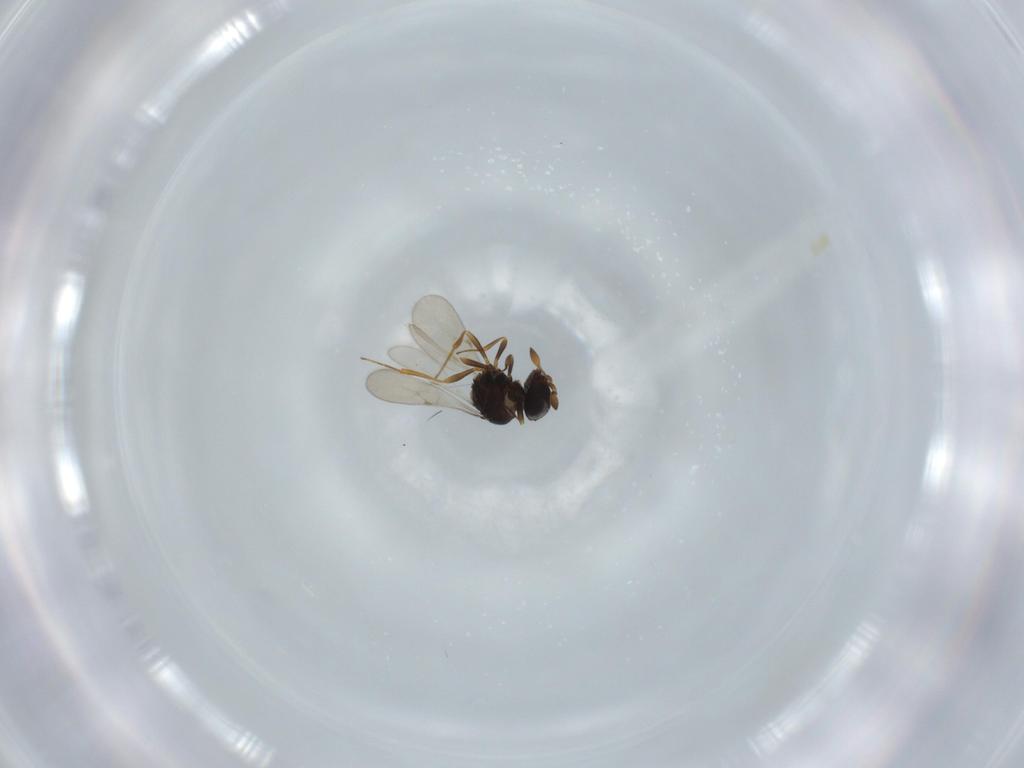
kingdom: Animalia
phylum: Arthropoda
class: Insecta
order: Hymenoptera
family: Scelionidae
